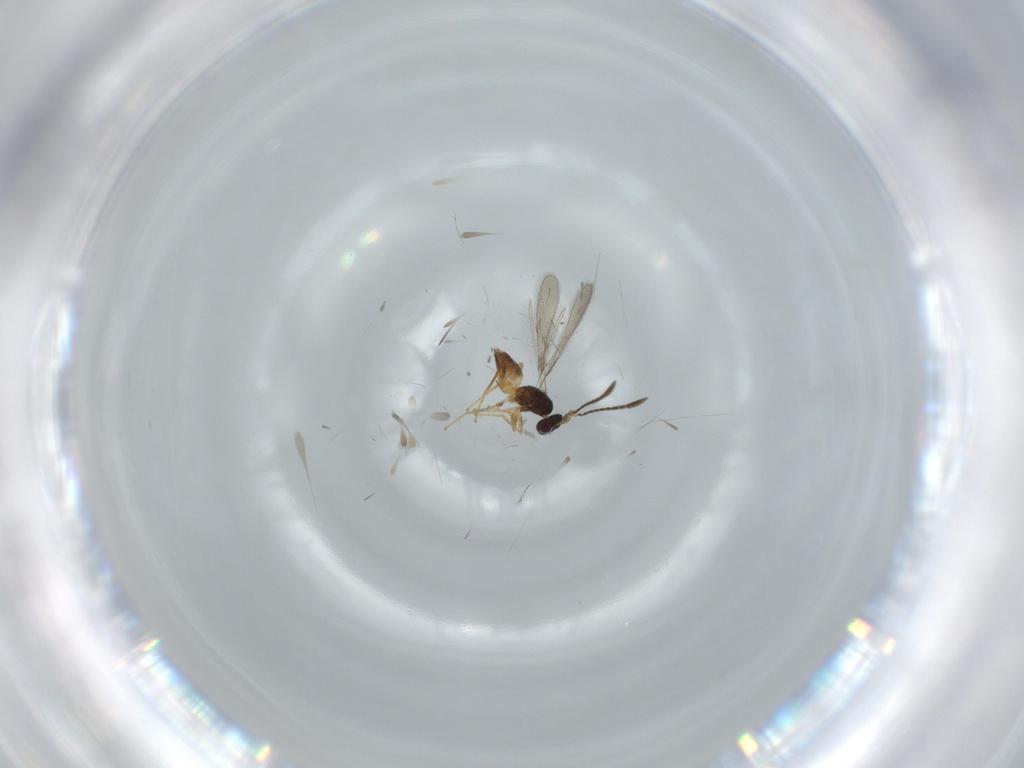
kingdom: Animalia
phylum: Arthropoda
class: Insecta
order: Hymenoptera
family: Mymaridae
